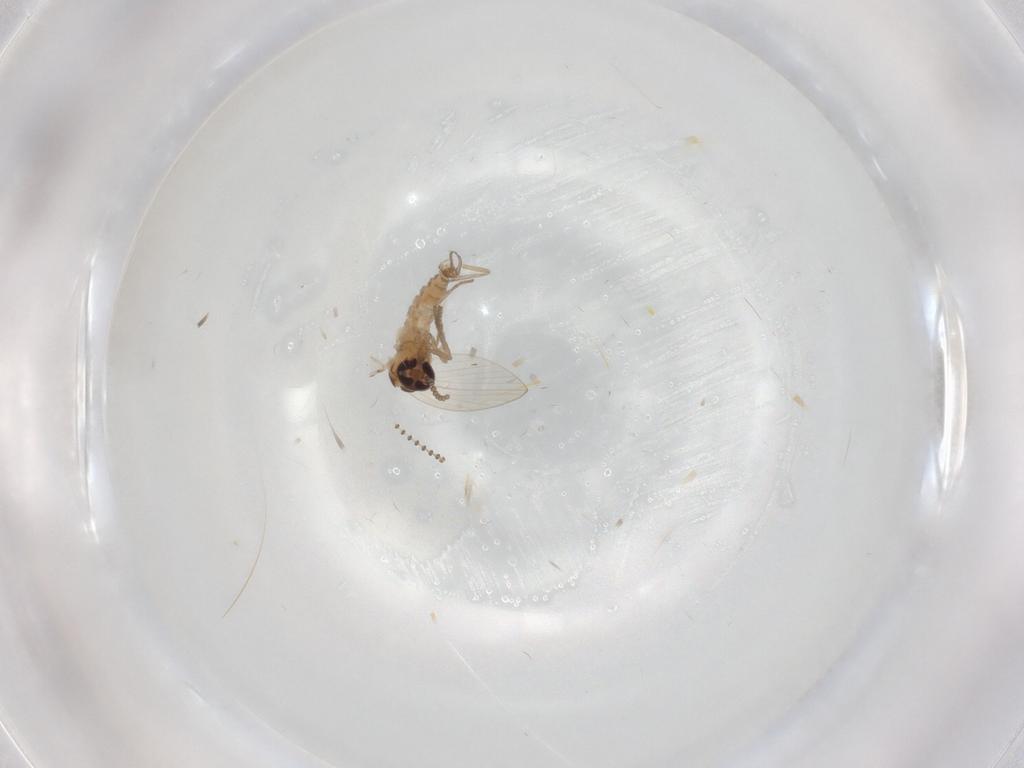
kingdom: Animalia
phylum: Arthropoda
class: Insecta
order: Diptera
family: Psychodidae
